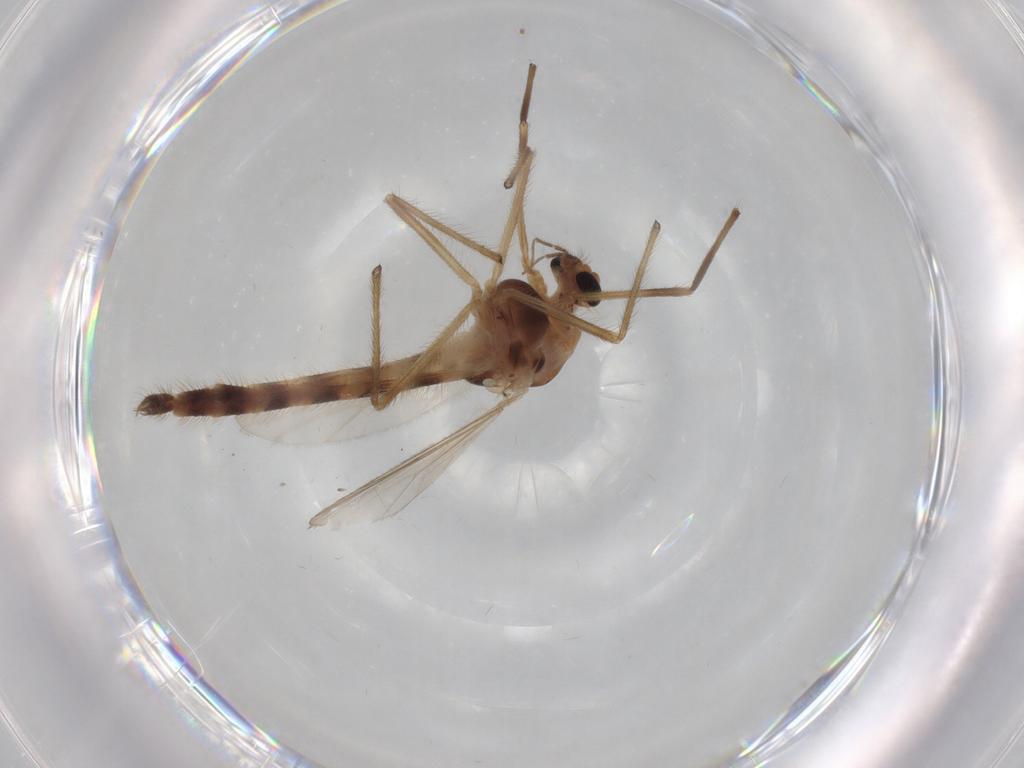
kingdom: Animalia
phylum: Arthropoda
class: Insecta
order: Diptera
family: Chironomidae
